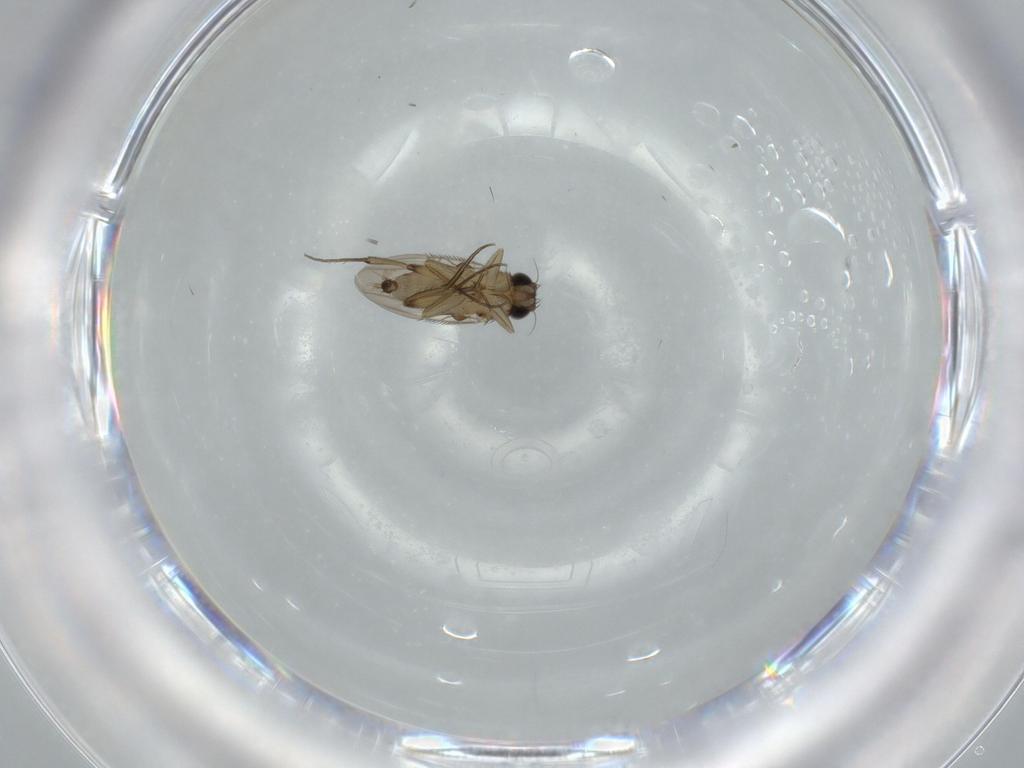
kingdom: Animalia
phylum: Arthropoda
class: Insecta
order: Diptera
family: Phoridae
